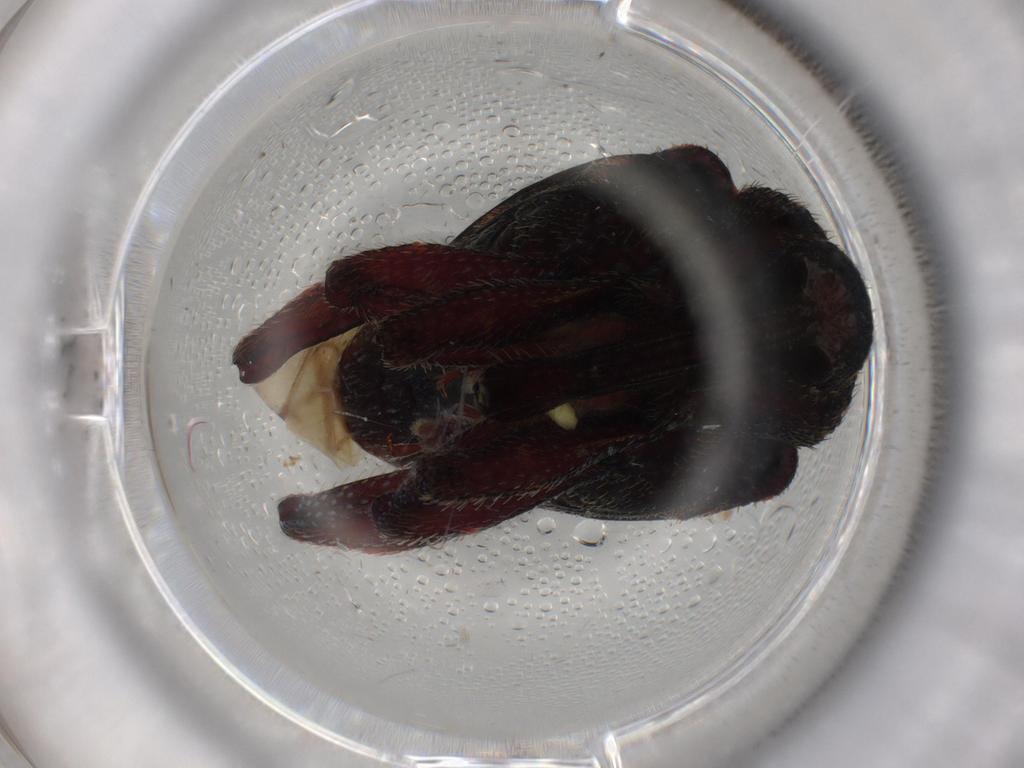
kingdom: Animalia
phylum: Arthropoda
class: Insecta
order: Coleoptera
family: Curculionidae
